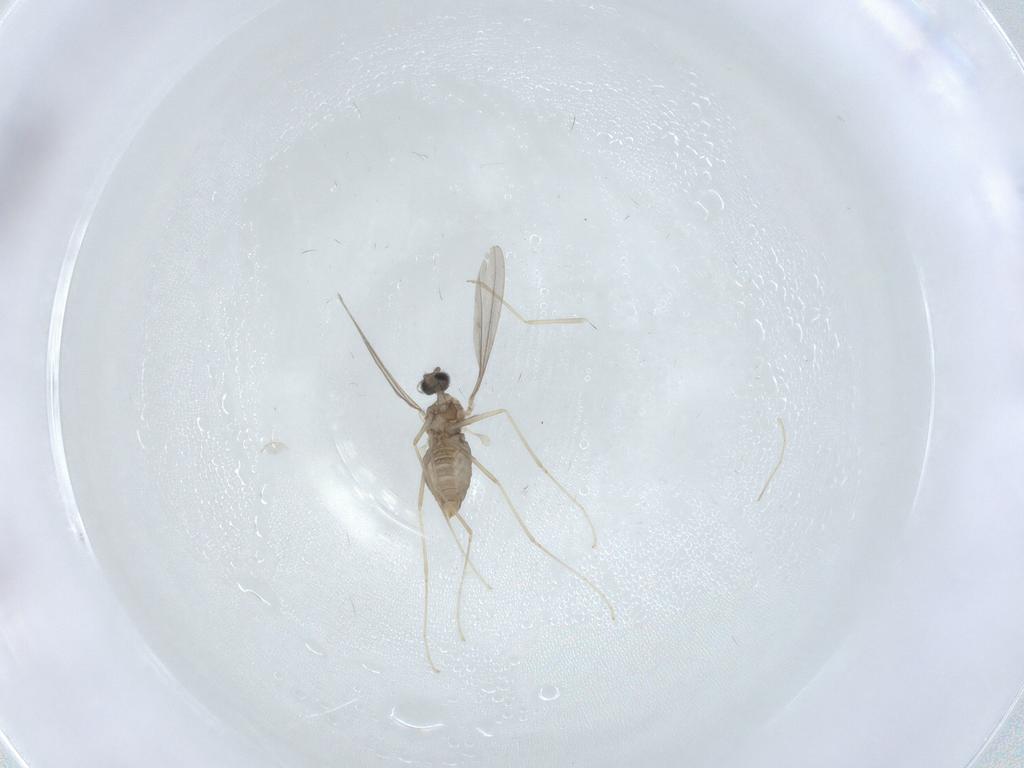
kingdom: Animalia
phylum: Arthropoda
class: Insecta
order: Diptera
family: Cecidomyiidae
